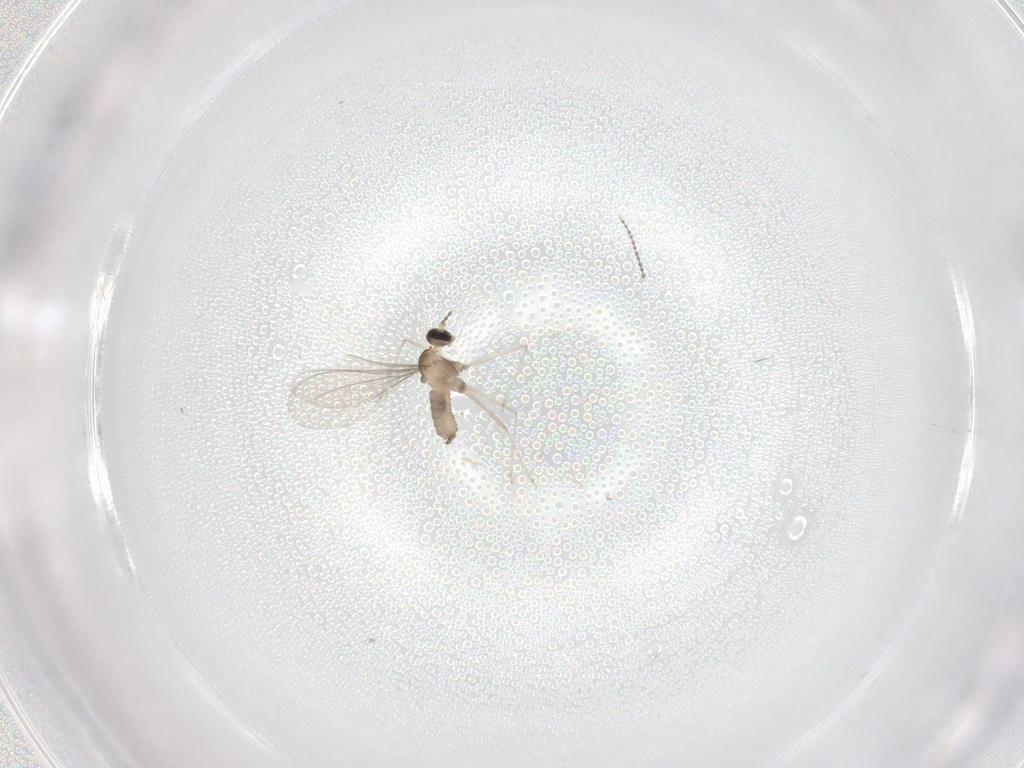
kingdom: Animalia
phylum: Arthropoda
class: Insecta
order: Diptera
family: Cecidomyiidae
